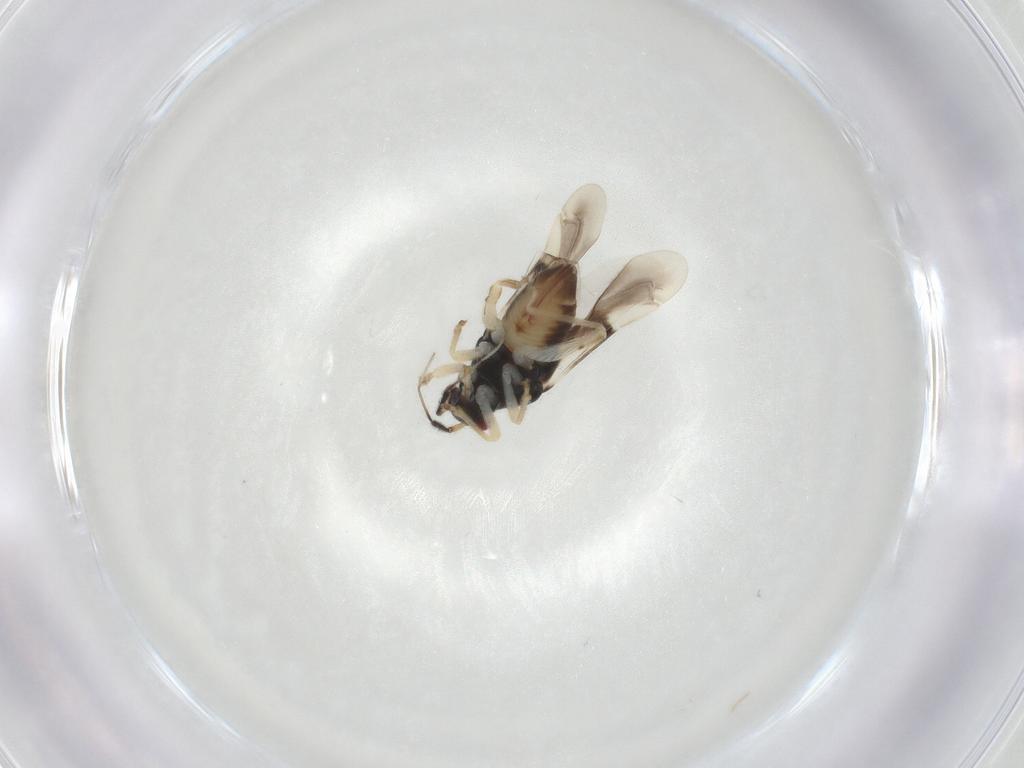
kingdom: Animalia
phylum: Arthropoda
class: Insecta
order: Hemiptera
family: Miridae
